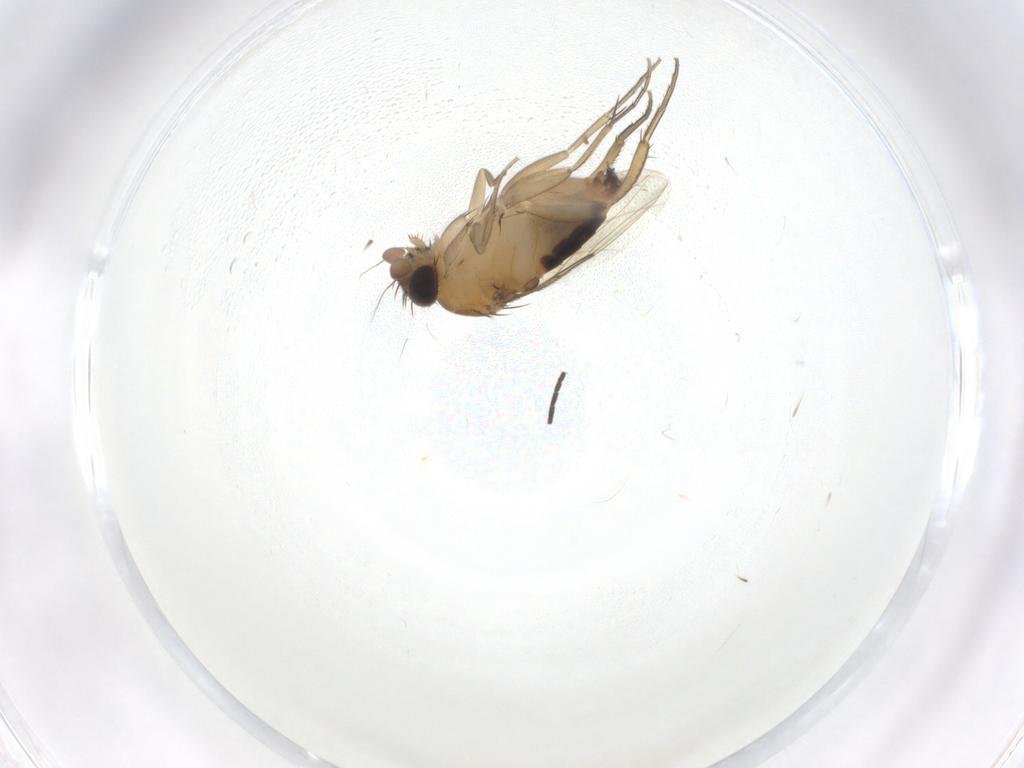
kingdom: Animalia
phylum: Arthropoda
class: Insecta
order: Diptera
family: Phoridae
